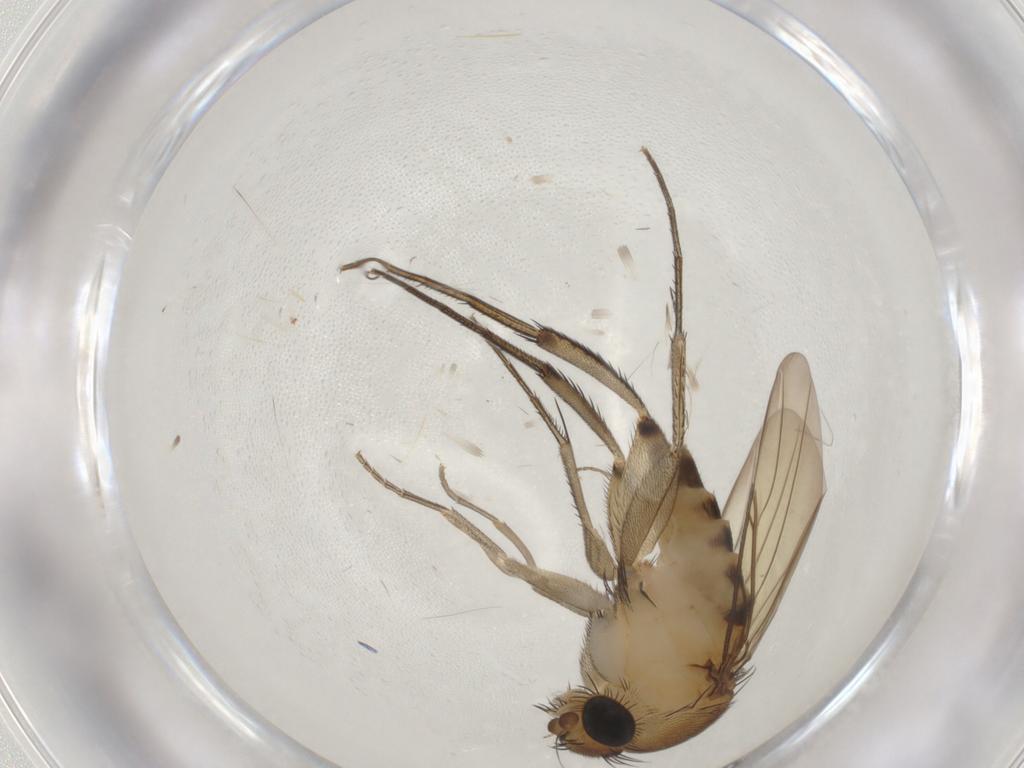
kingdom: Animalia
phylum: Arthropoda
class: Insecta
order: Diptera
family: Phoridae
